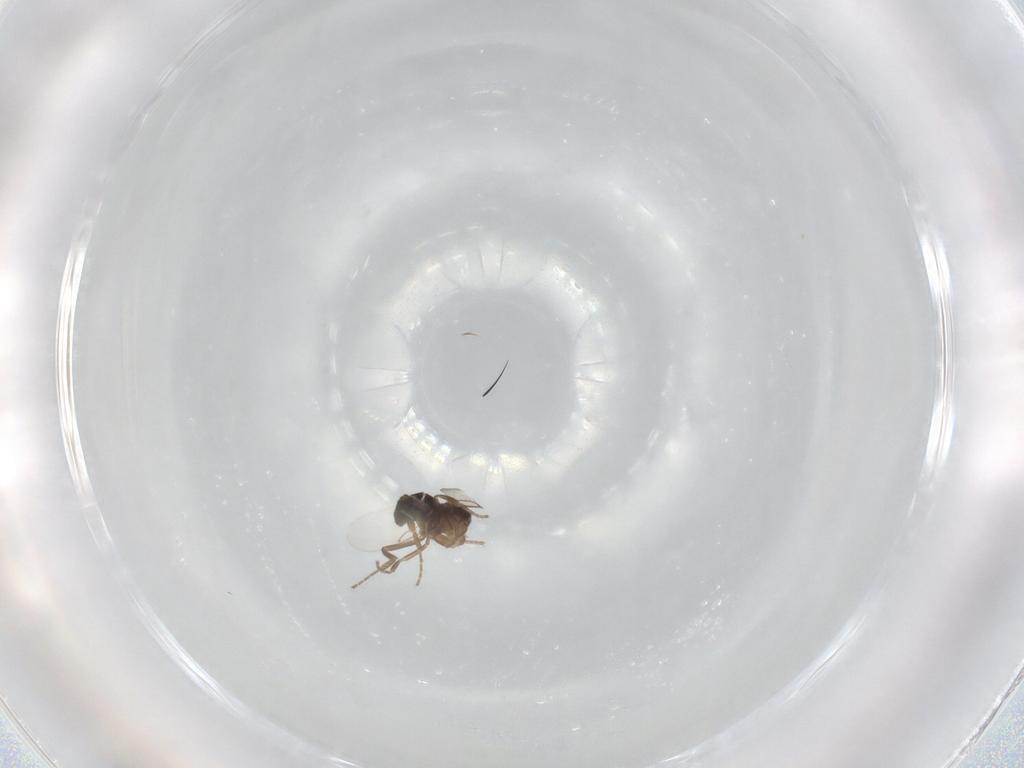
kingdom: Animalia
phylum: Arthropoda
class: Insecta
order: Diptera
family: Phoridae
